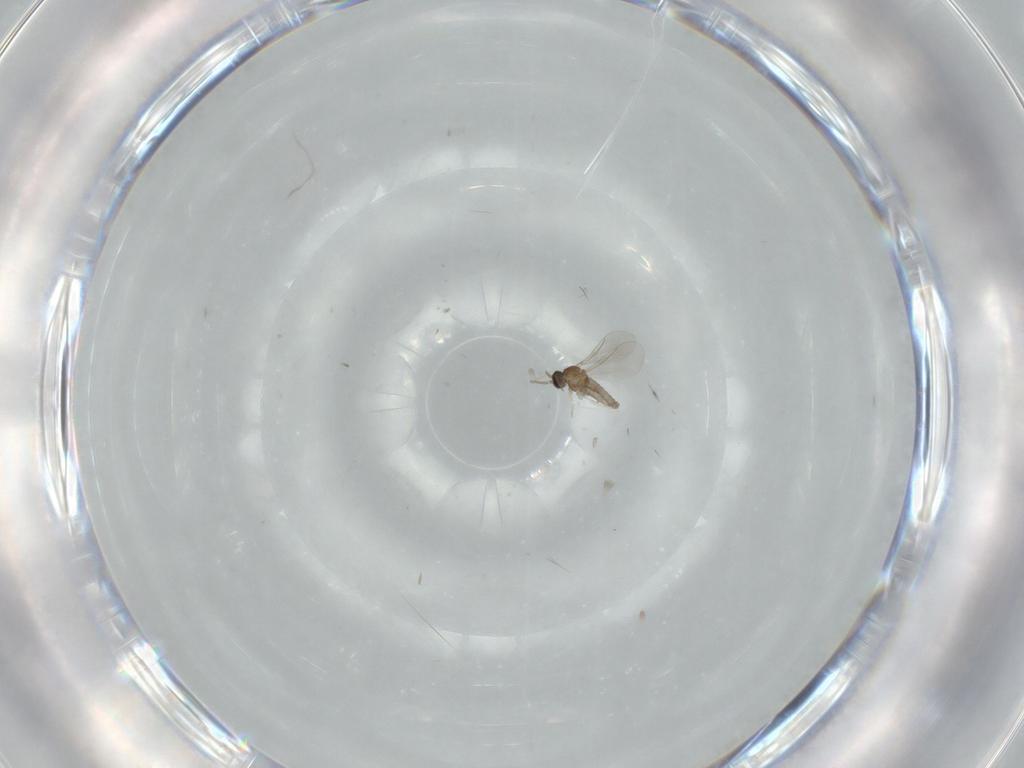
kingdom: Animalia
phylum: Arthropoda
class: Insecta
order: Diptera
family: Cecidomyiidae
